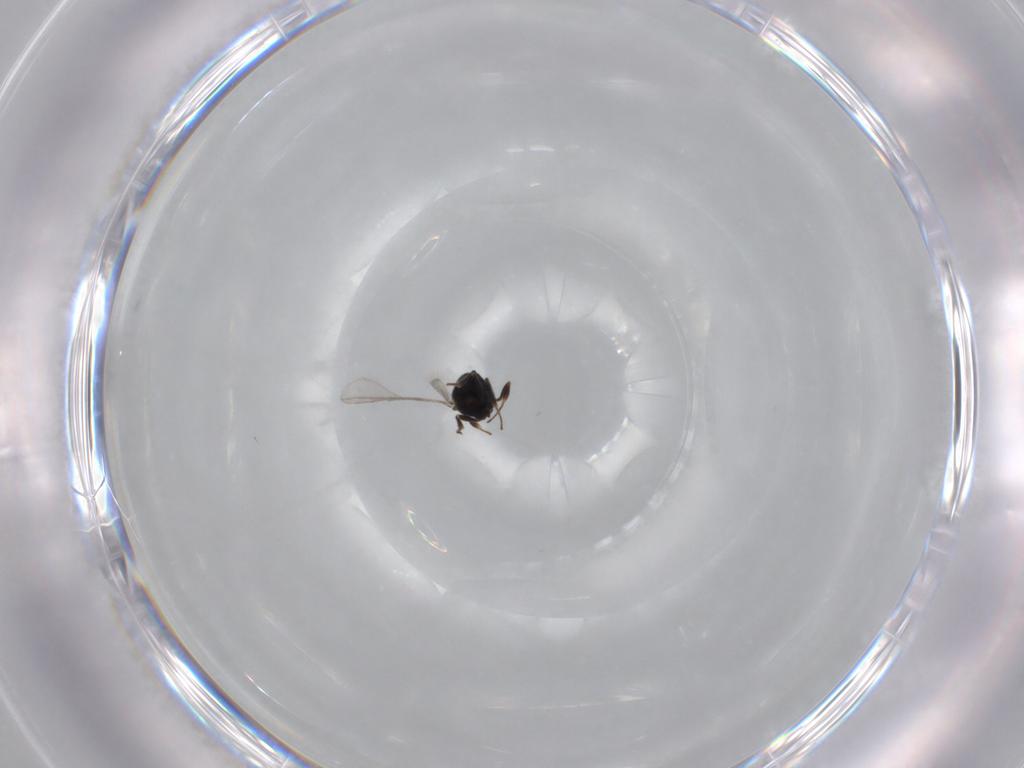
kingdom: Animalia
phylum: Arthropoda
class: Insecta
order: Hymenoptera
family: Scelionidae
